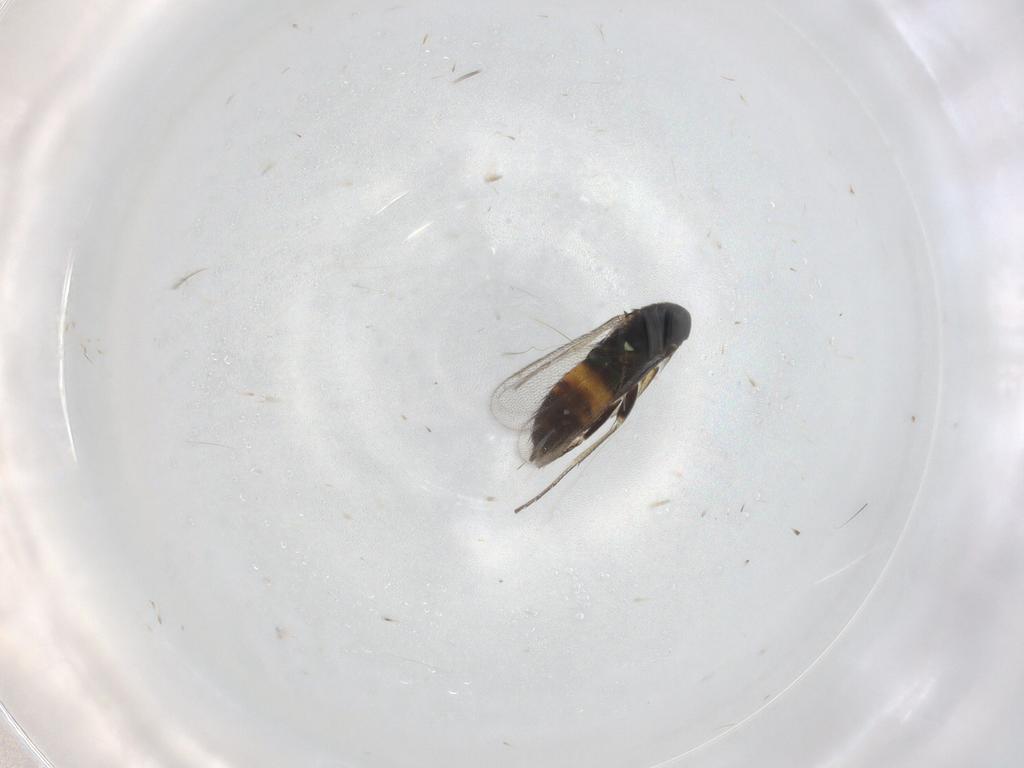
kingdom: Animalia
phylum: Arthropoda
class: Insecta
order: Hymenoptera
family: Eulophidae
